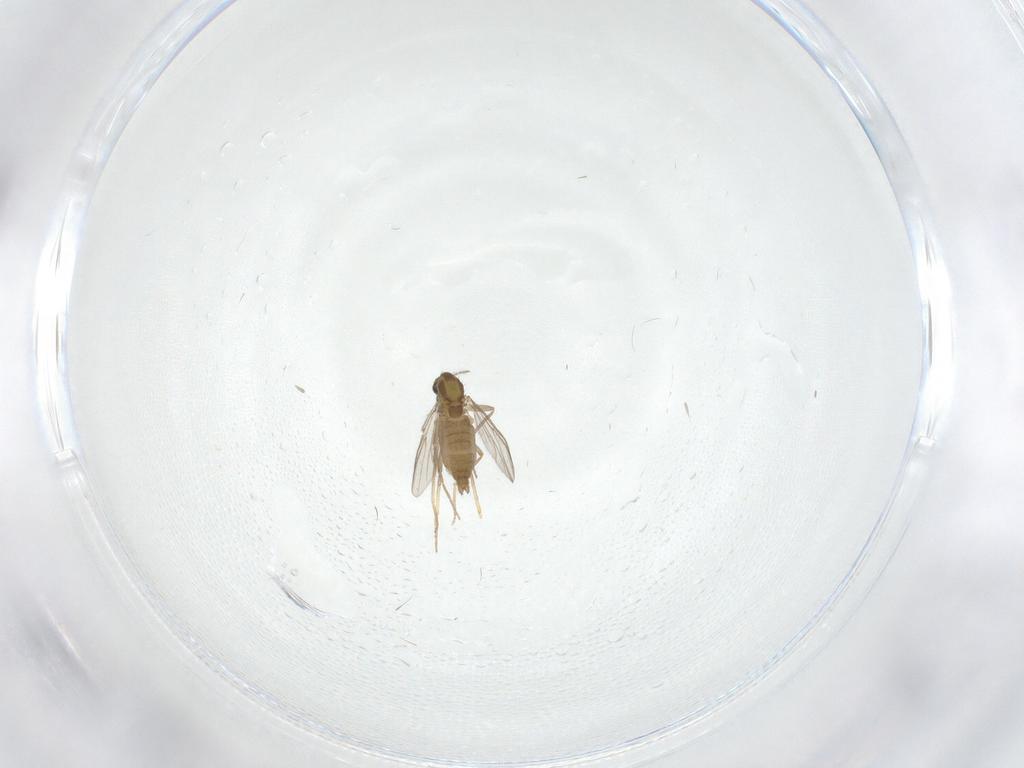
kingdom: Animalia
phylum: Arthropoda
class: Insecta
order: Diptera
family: Chironomidae
